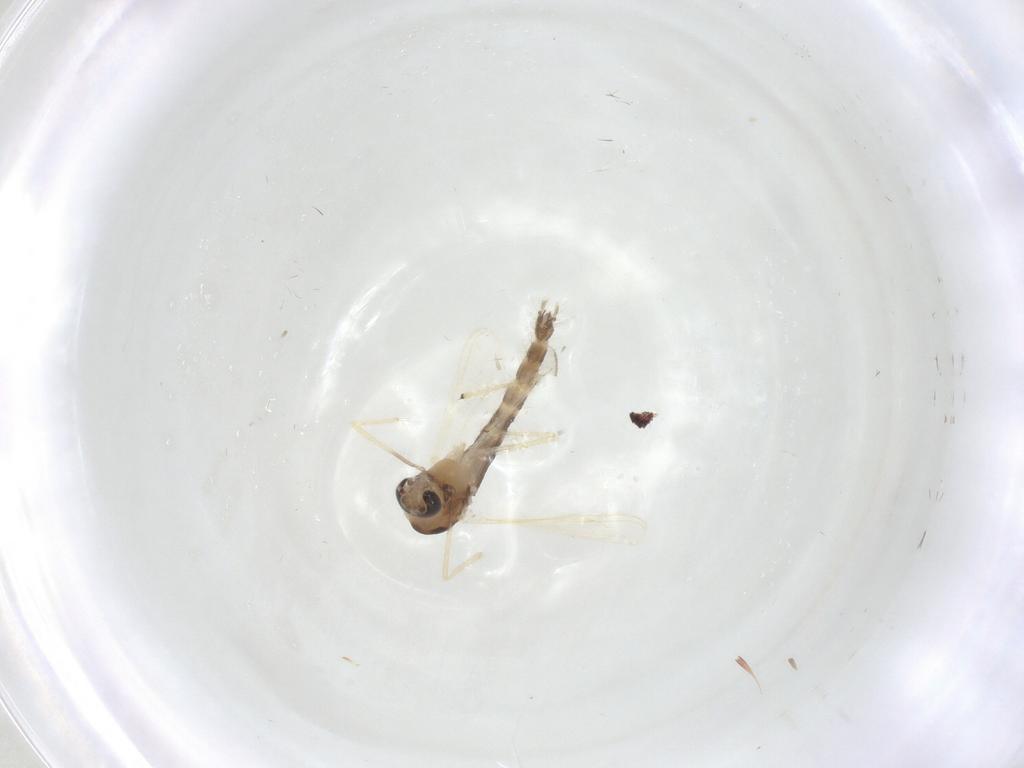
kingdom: Animalia
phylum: Arthropoda
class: Insecta
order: Diptera
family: Chironomidae
